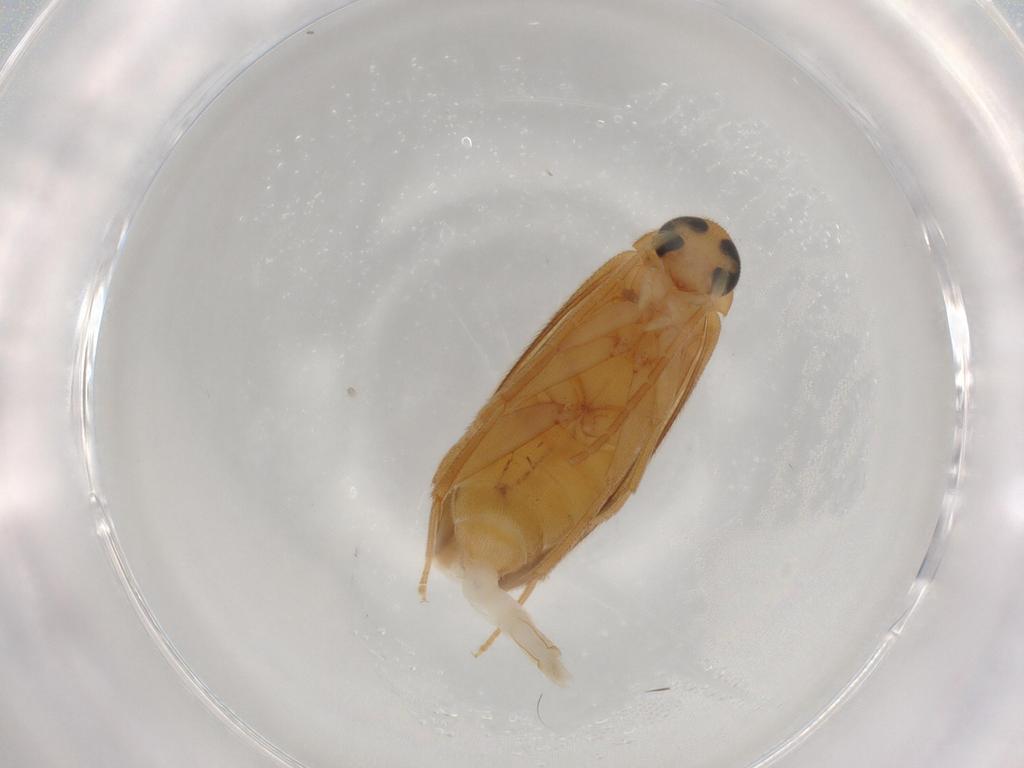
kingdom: Animalia
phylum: Arthropoda
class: Insecta
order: Coleoptera
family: Scraptiidae
